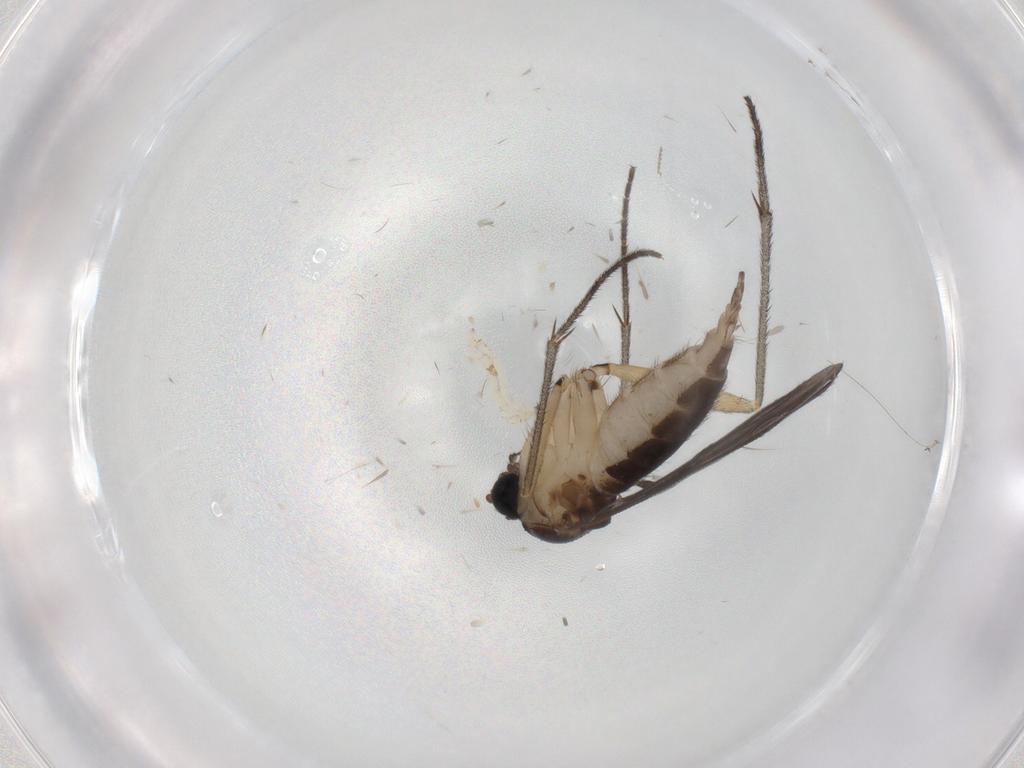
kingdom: Animalia
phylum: Arthropoda
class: Insecta
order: Diptera
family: Sciaridae
